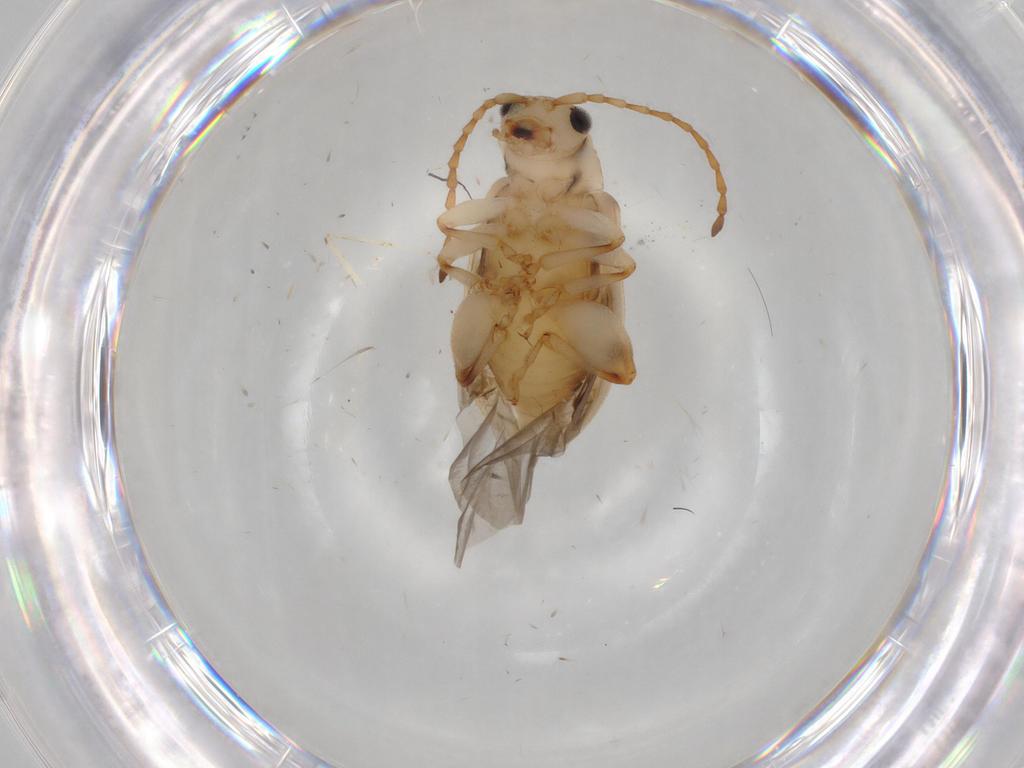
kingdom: Animalia
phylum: Arthropoda
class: Insecta
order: Coleoptera
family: Chrysomelidae
